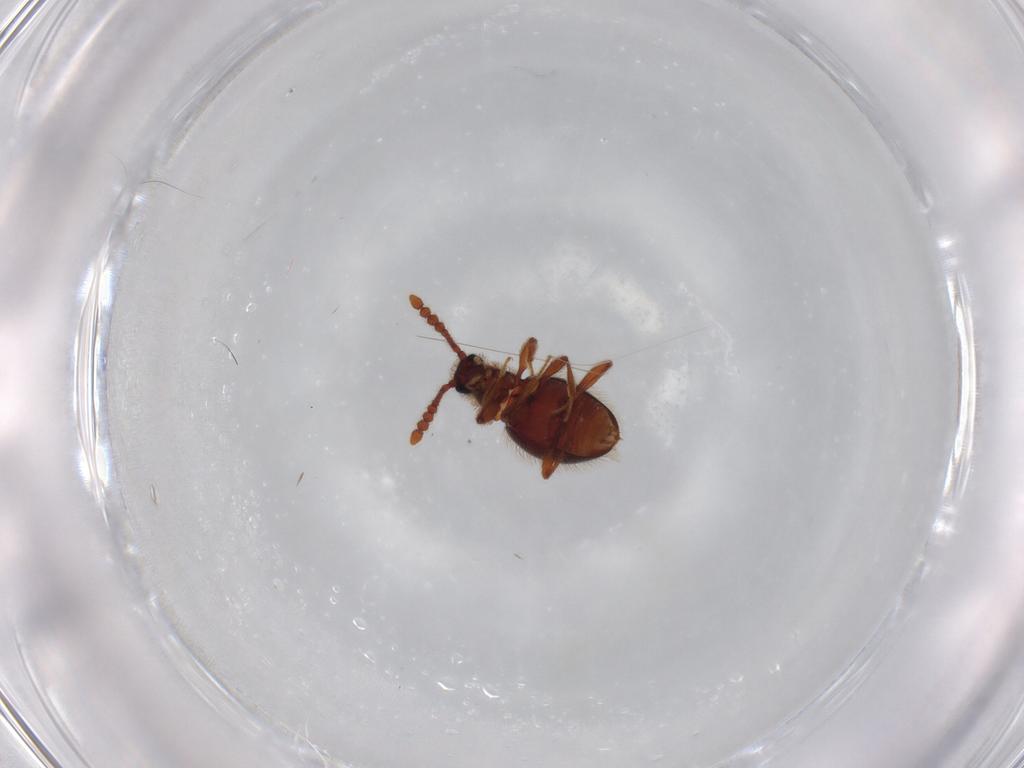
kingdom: Animalia
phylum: Arthropoda
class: Insecta
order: Coleoptera
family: Staphylinidae
